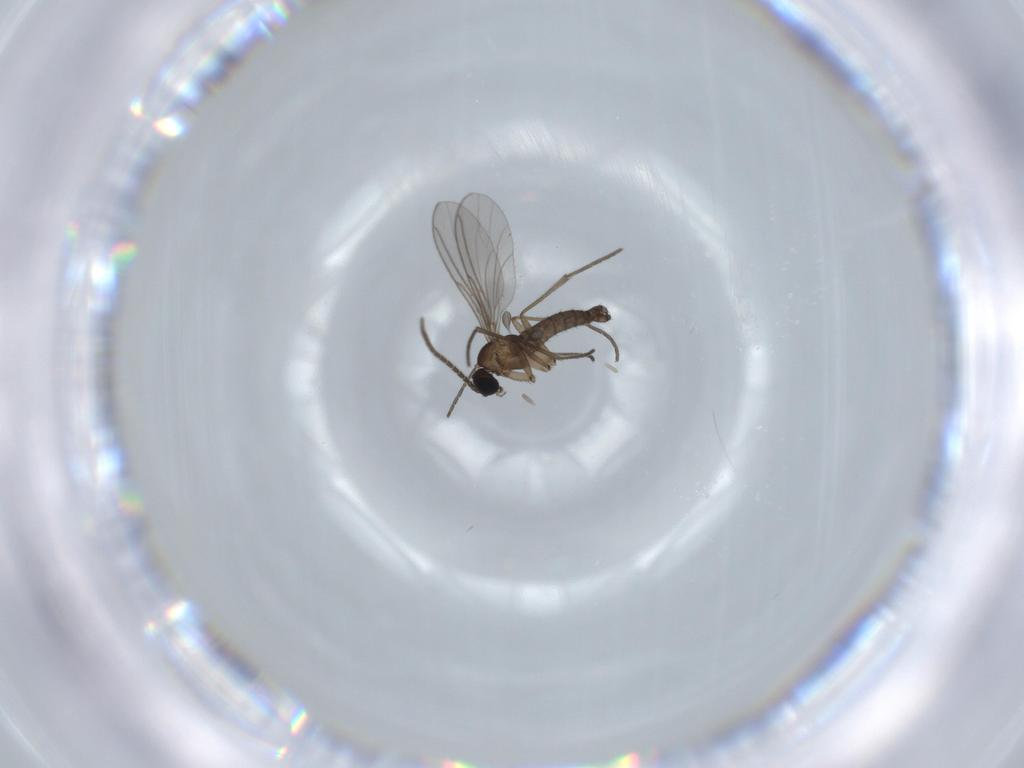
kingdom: Animalia
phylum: Arthropoda
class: Insecta
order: Diptera
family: Sciaridae
